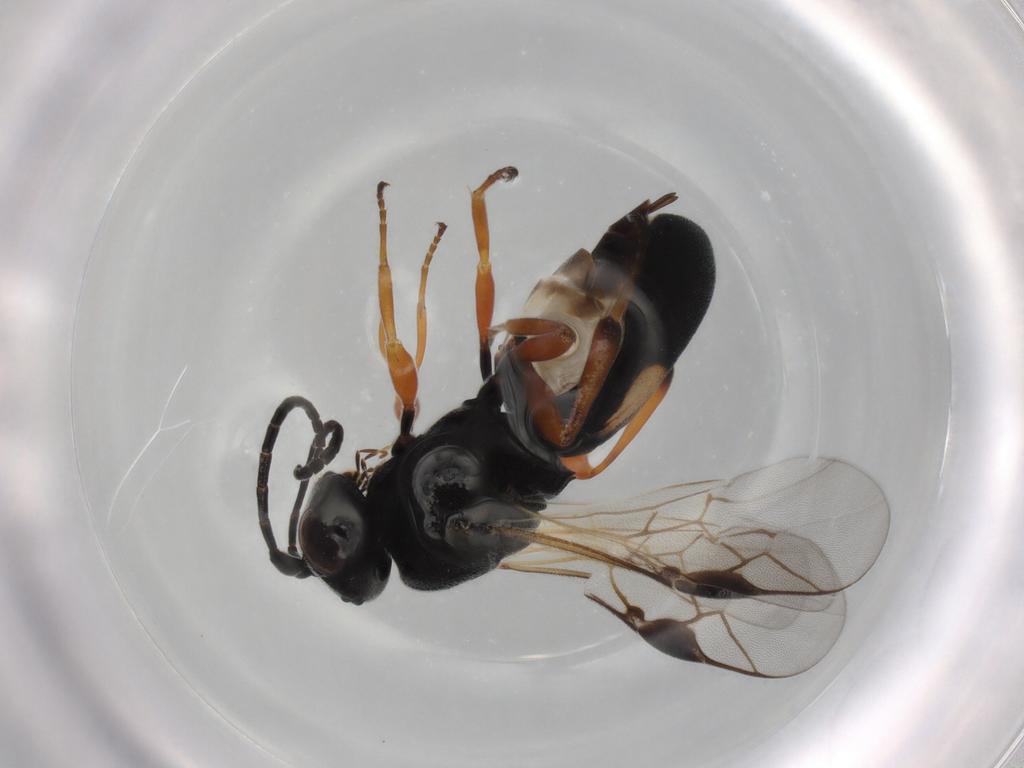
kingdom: Animalia
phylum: Arthropoda
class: Insecta
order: Hymenoptera
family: Braconidae
